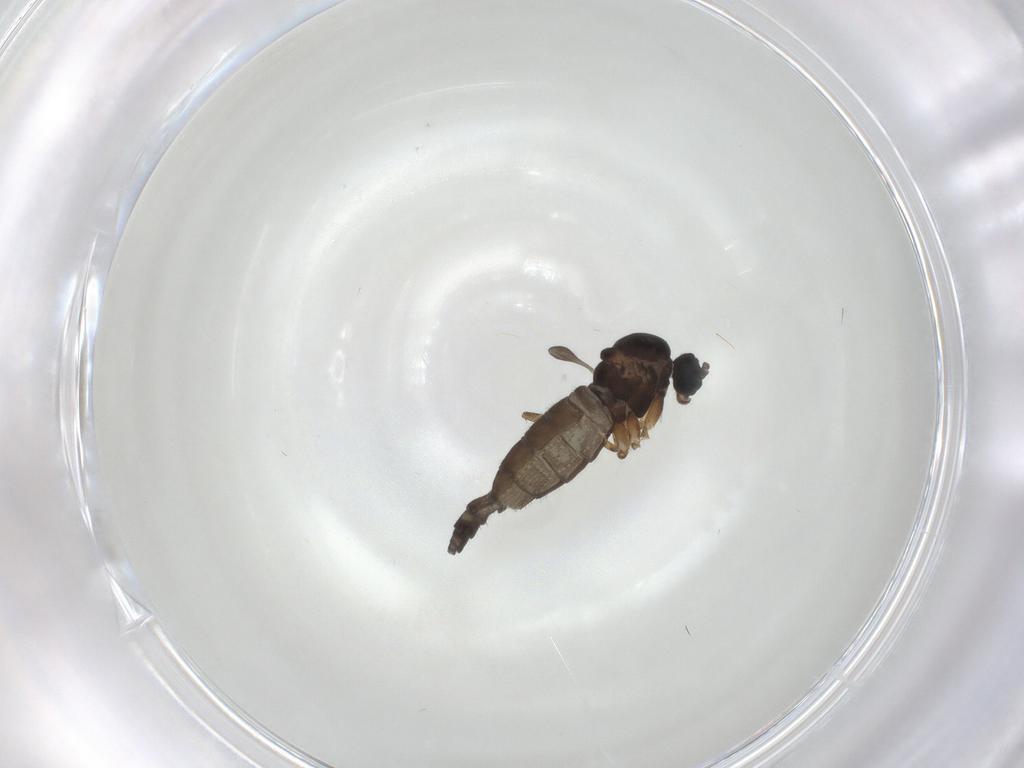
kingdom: Animalia
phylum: Arthropoda
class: Insecta
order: Diptera
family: Sciaridae
